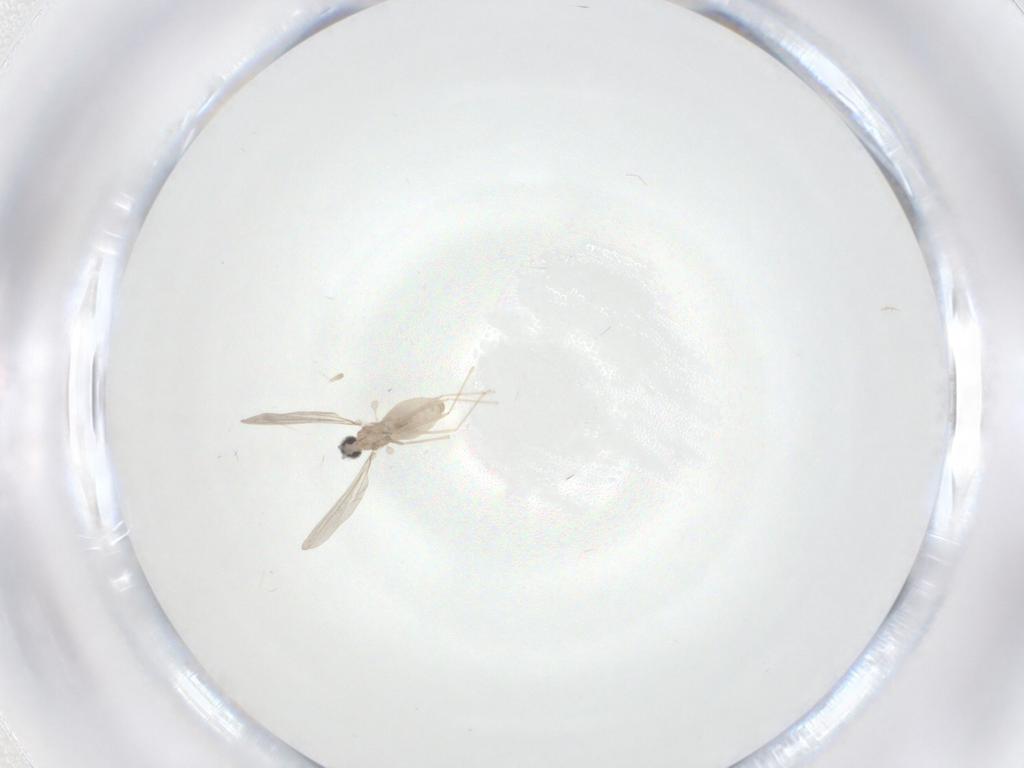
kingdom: Animalia
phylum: Arthropoda
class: Insecta
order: Diptera
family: Cecidomyiidae
